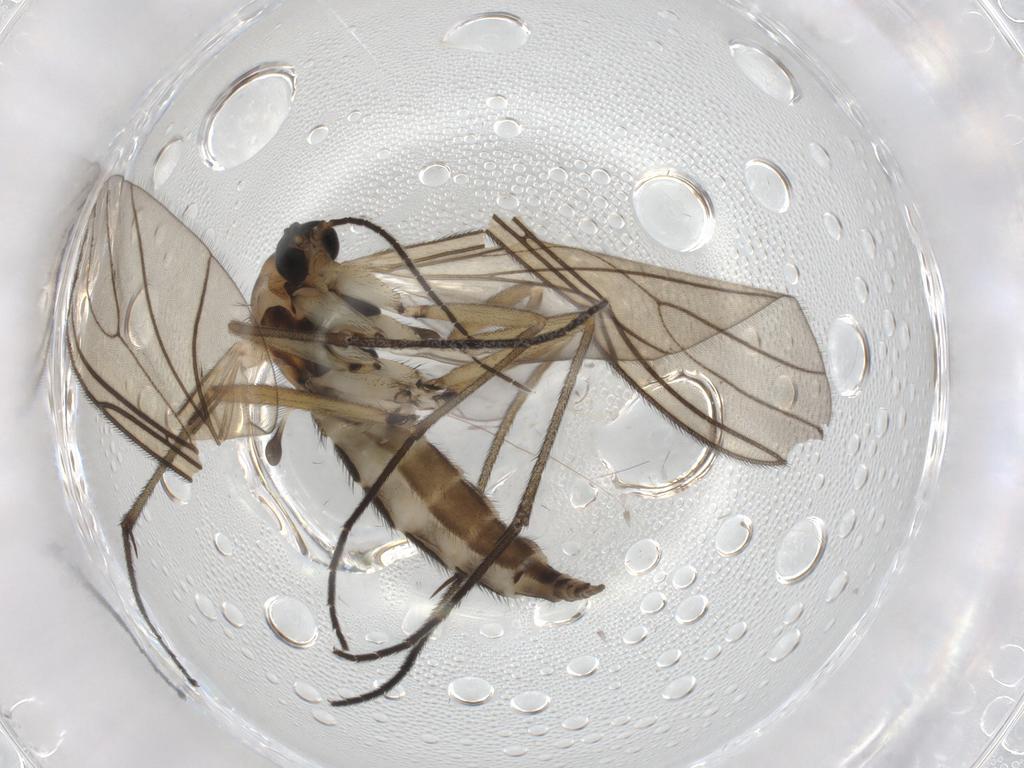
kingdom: Animalia
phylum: Arthropoda
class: Insecta
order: Diptera
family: Sciaridae
